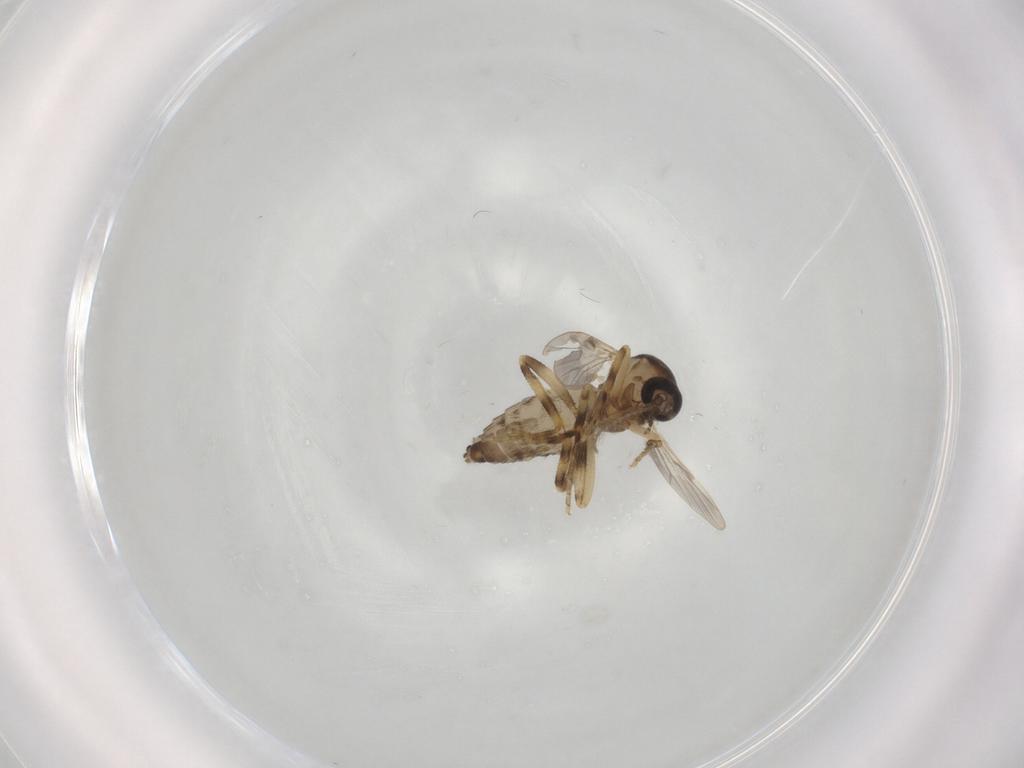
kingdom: Animalia
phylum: Arthropoda
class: Insecta
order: Diptera
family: Ceratopogonidae
